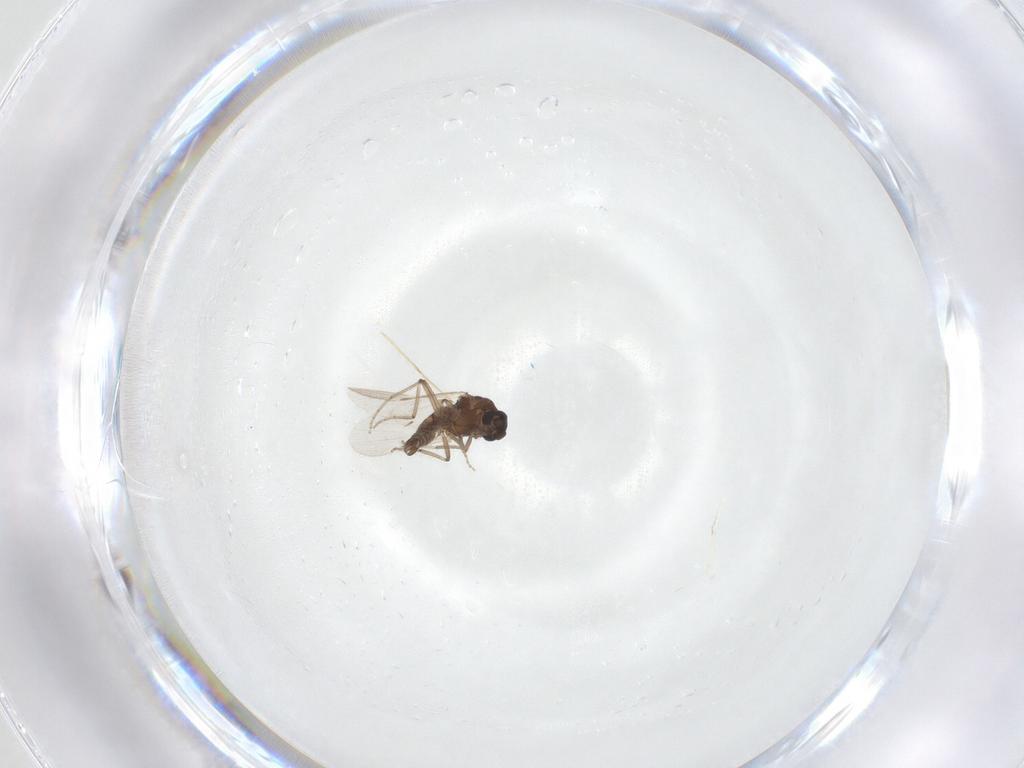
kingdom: Animalia
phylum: Arthropoda
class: Insecta
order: Diptera
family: Ceratopogonidae
